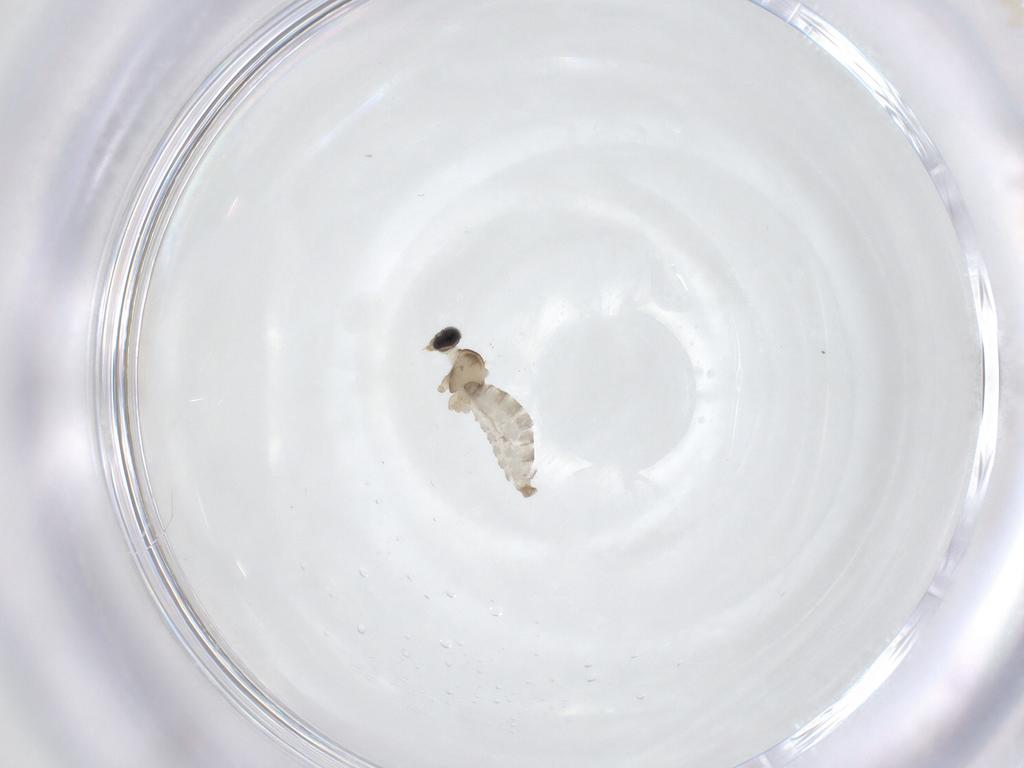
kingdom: Animalia
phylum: Arthropoda
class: Insecta
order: Diptera
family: Cecidomyiidae
